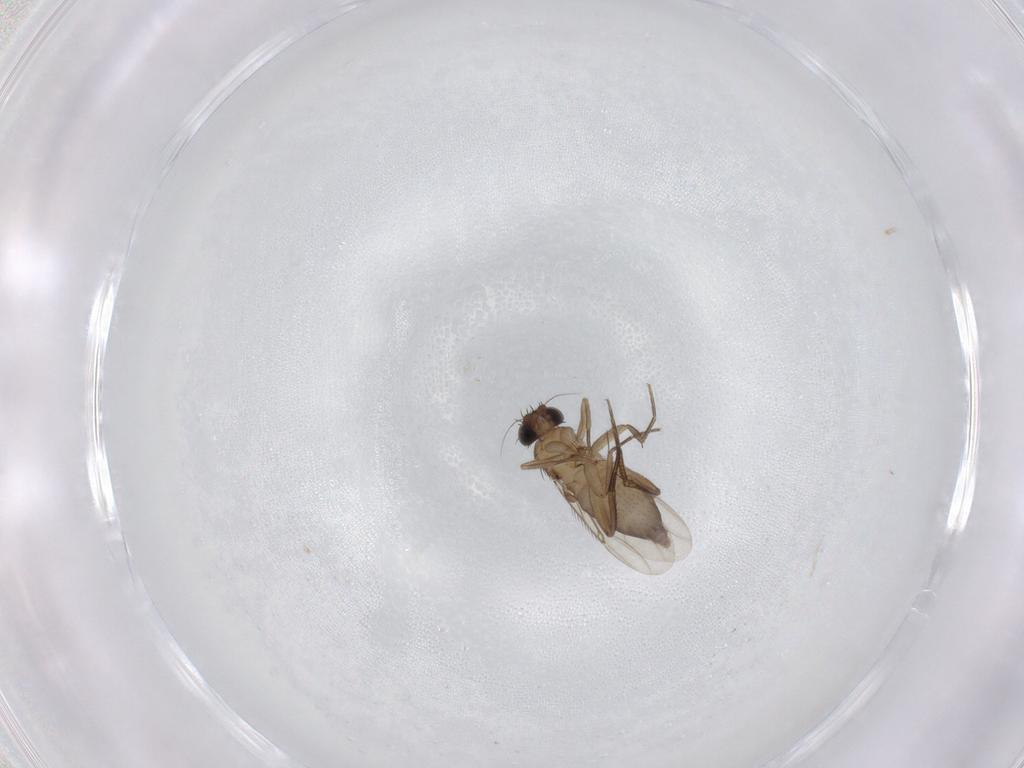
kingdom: Animalia
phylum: Arthropoda
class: Insecta
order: Diptera
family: Phoridae
